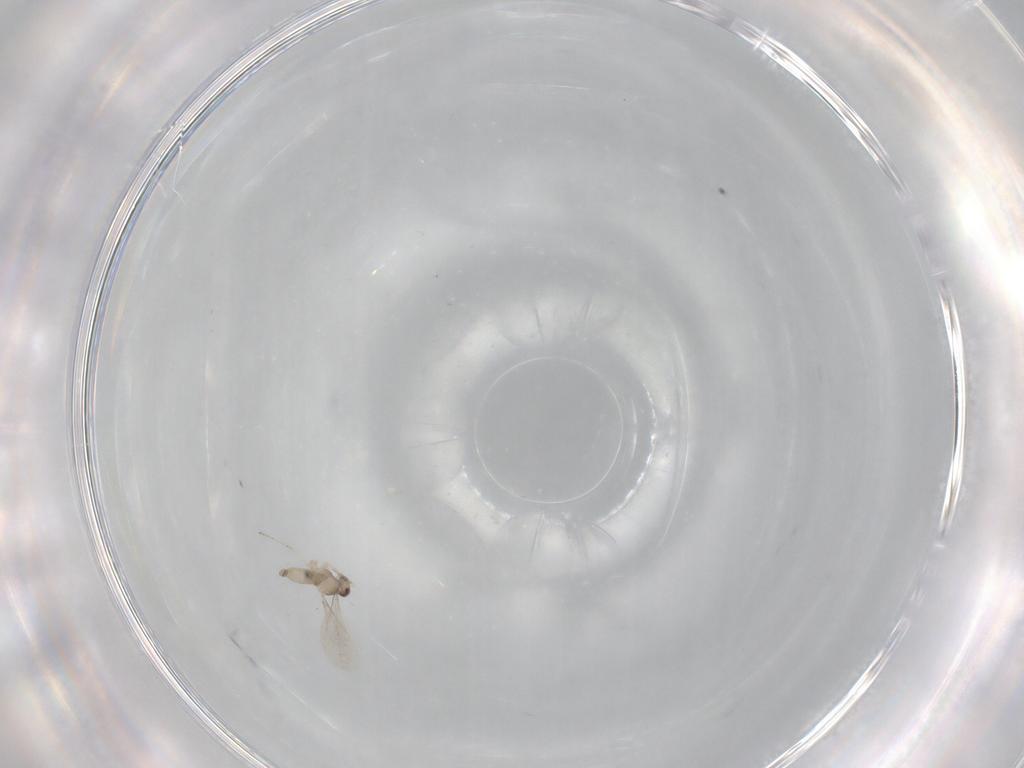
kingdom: Animalia
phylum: Arthropoda
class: Insecta
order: Diptera
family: Cecidomyiidae
